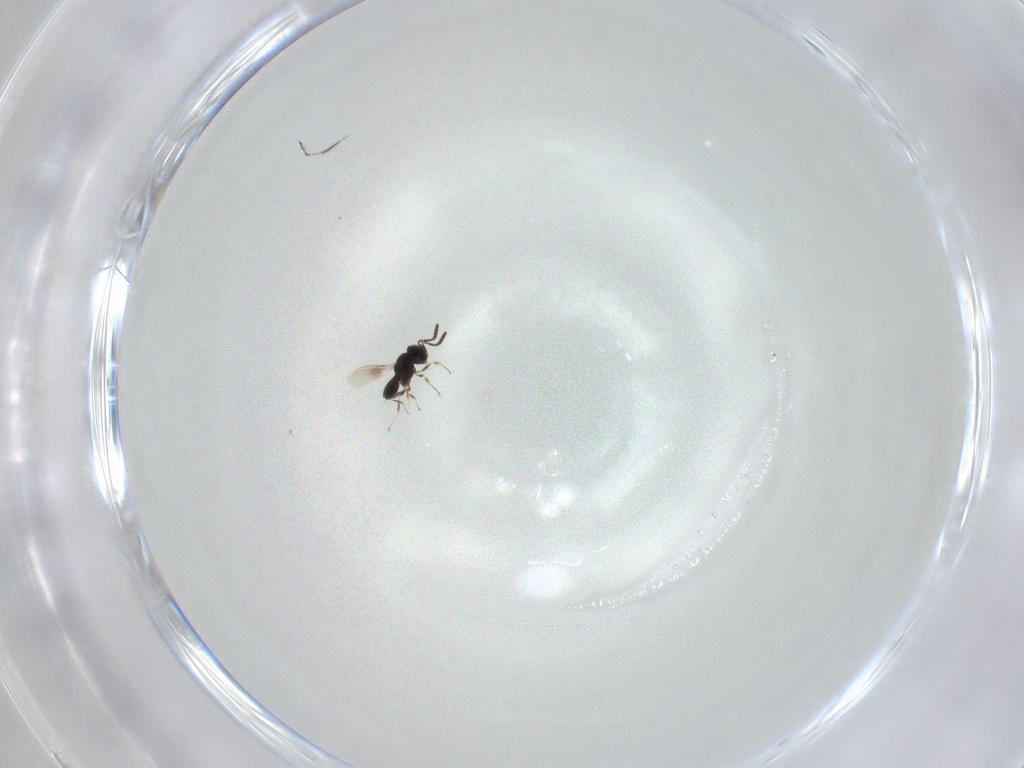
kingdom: Animalia
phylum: Arthropoda
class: Insecta
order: Hymenoptera
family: Scelionidae
